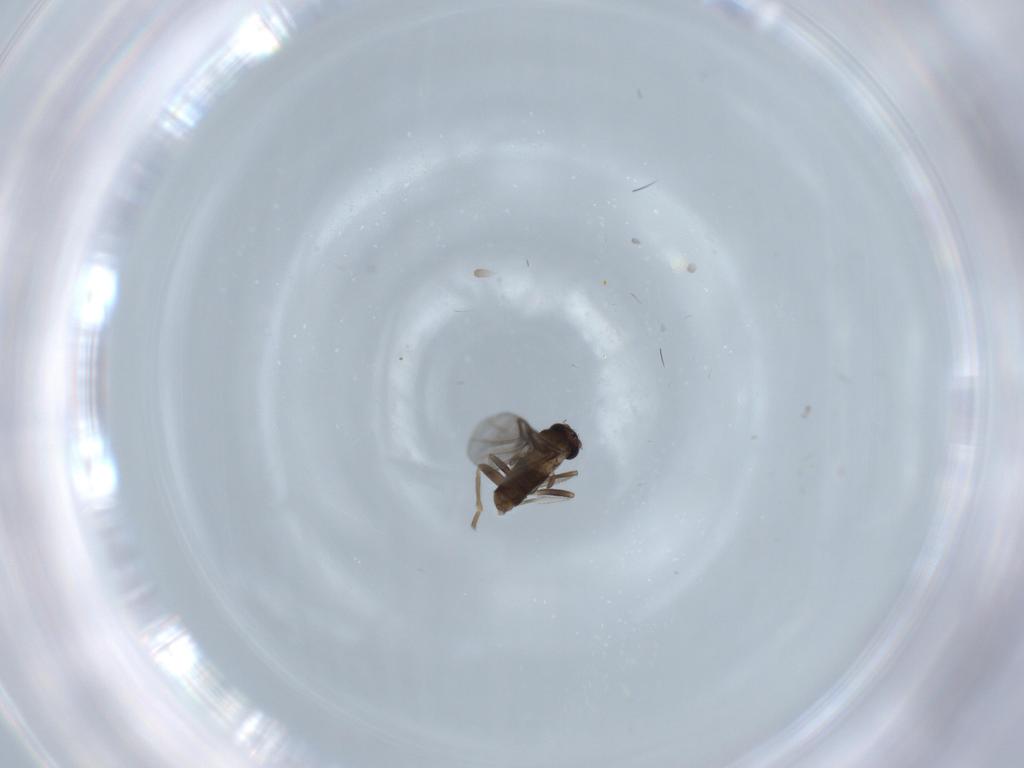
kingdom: Animalia
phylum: Arthropoda
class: Insecta
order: Diptera
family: Phoridae
